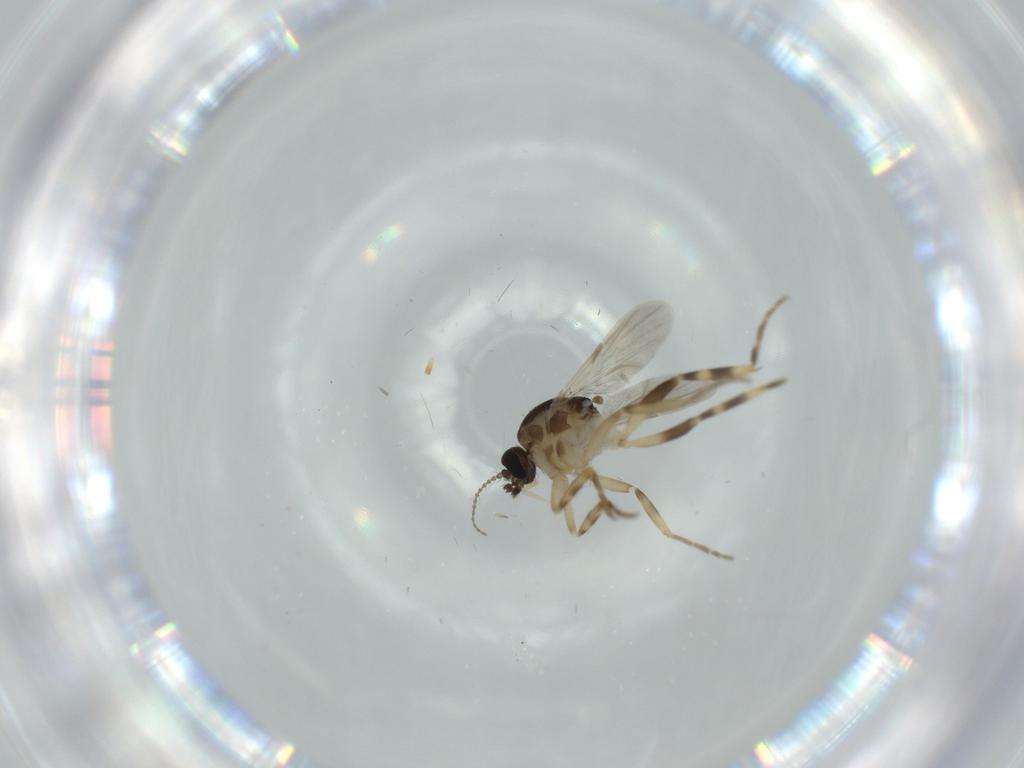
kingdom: Animalia
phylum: Arthropoda
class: Insecta
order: Diptera
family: Ceratopogonidae
